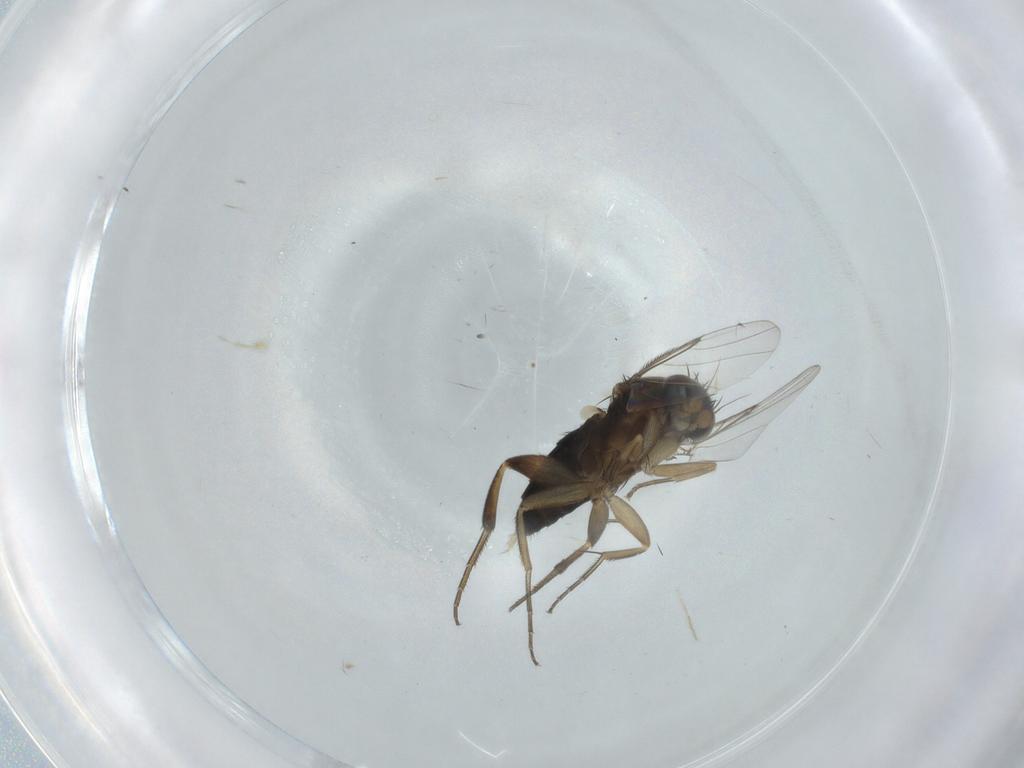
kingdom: Animalia
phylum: Arthropoda
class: Insecta
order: Diptera
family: Phoridae
